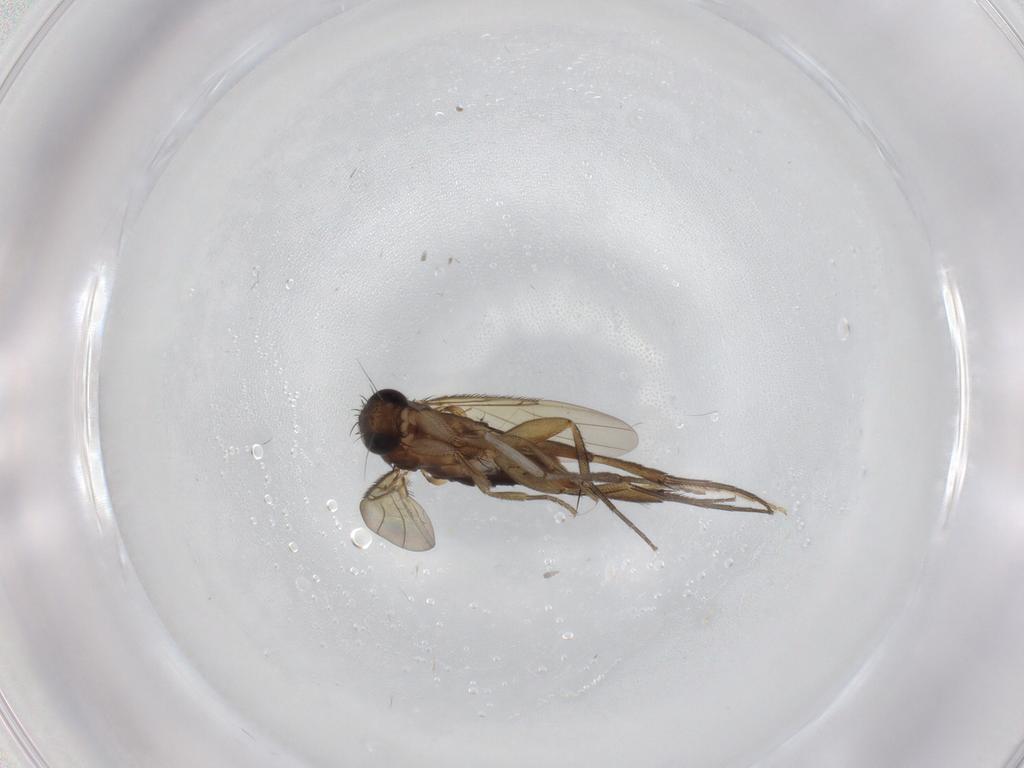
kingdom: Animalia
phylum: Arthropoda
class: Insecta
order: Diptera
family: Phoridae
